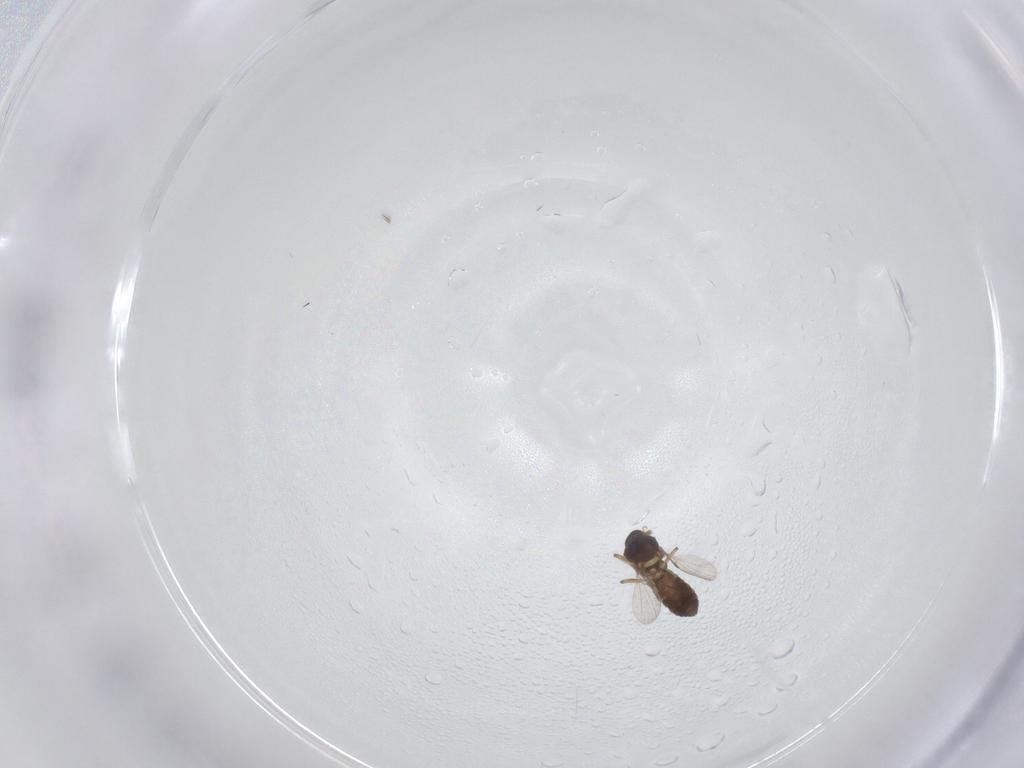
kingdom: Animalia
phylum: Arthropoda
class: Insecta
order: Diptera
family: Ceratopogonidae
